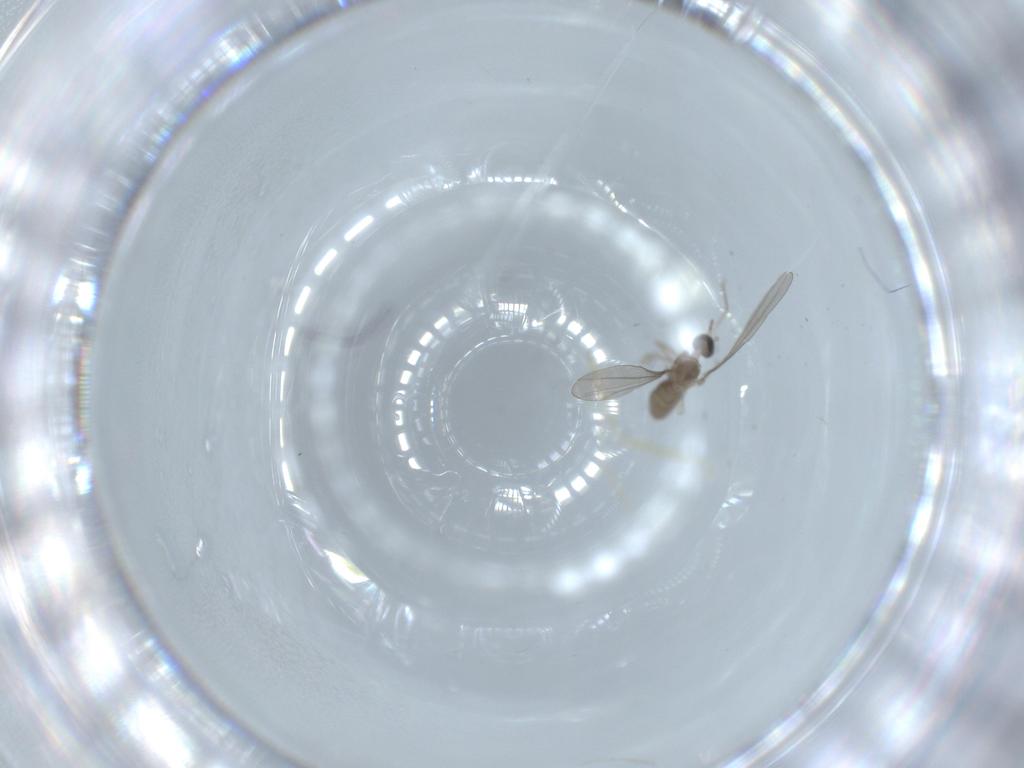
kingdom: Animalia
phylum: Arthropoda
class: Insecta
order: Diptera
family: Cecidomyiidae
